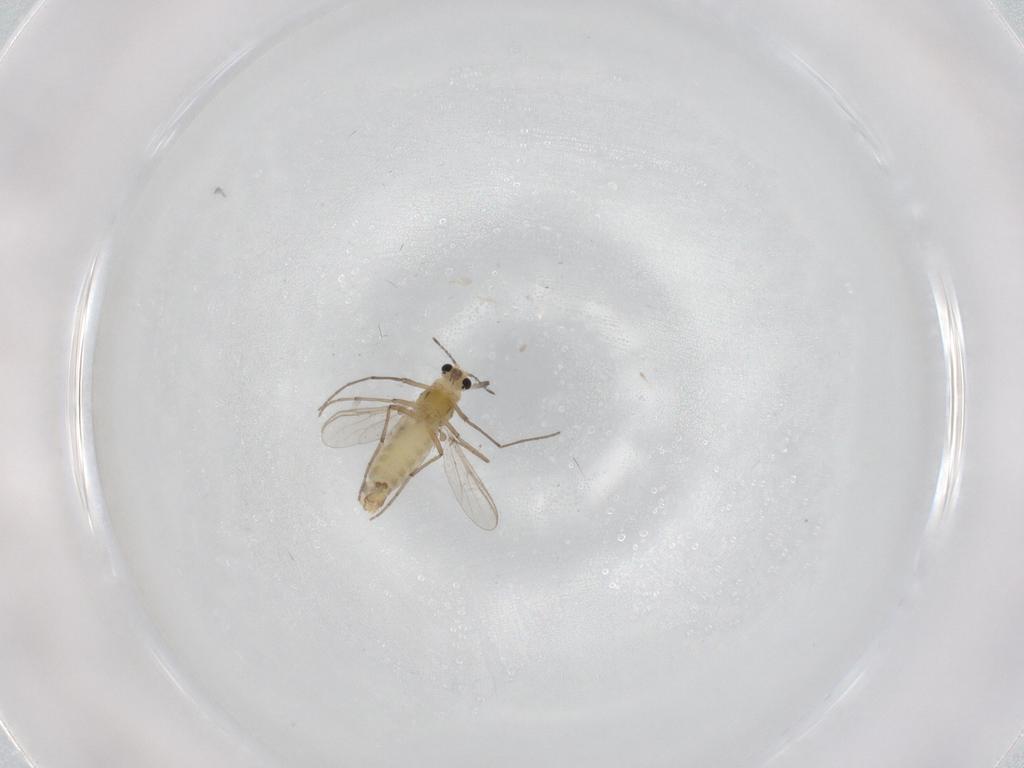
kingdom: Animalia
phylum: Arthropoda
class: Insecta
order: Diptera
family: Chironomidae
